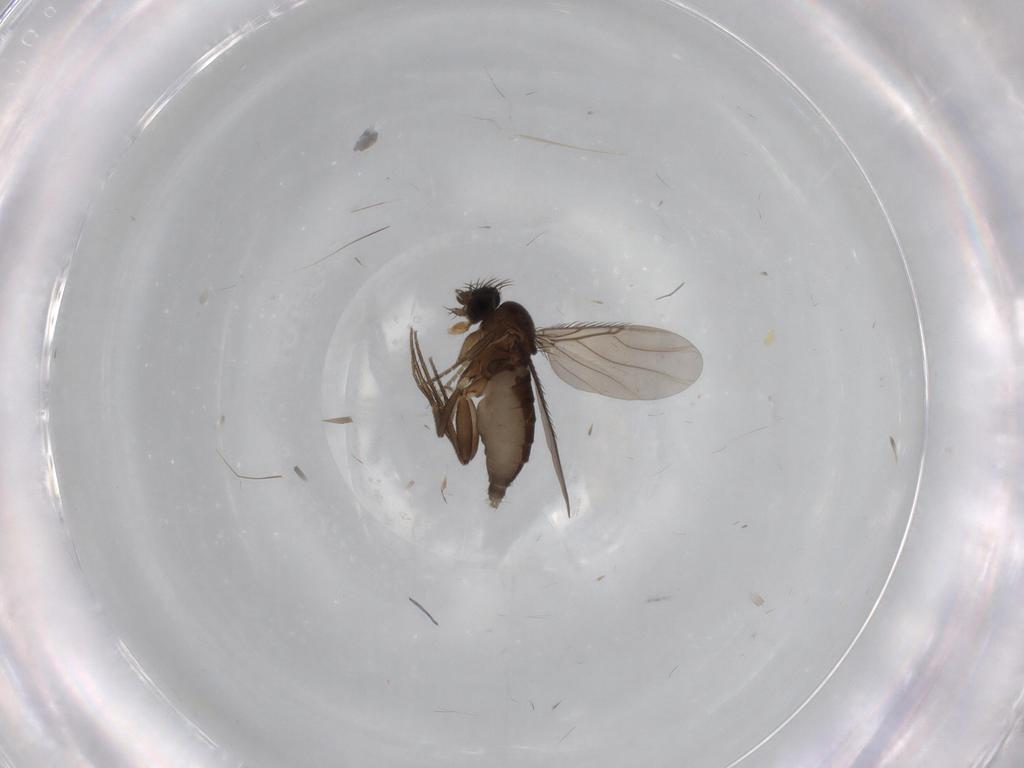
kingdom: Animalia
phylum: Arthropoda
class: Insecta
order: Diptera
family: Phoridae
